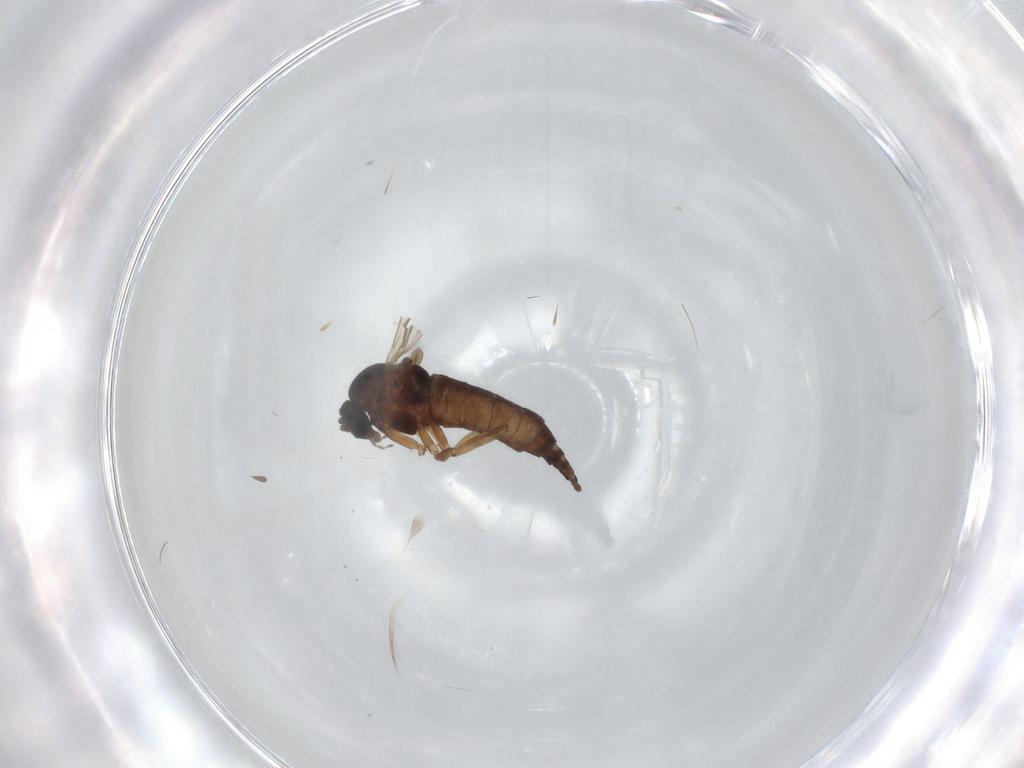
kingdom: Animalia
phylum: Arthropoda
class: Insecta
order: Diptera
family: Sciaridae
